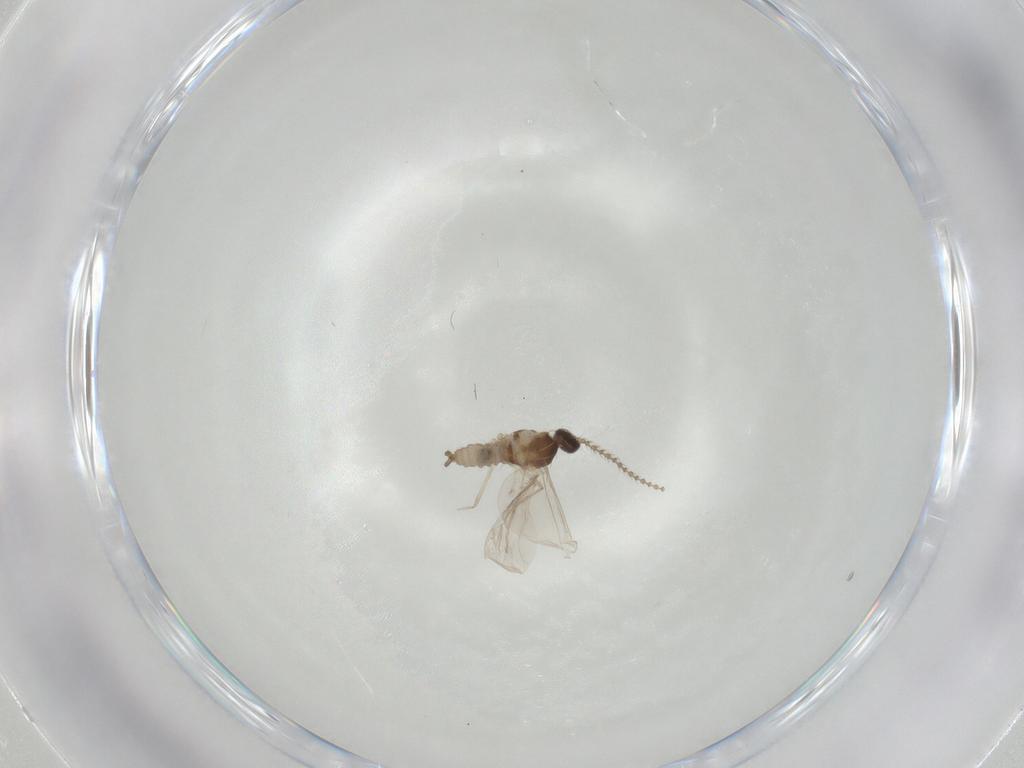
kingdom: Animalia
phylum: Arthropoda
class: Insecta
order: Diptera
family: Cecidomyiidae
